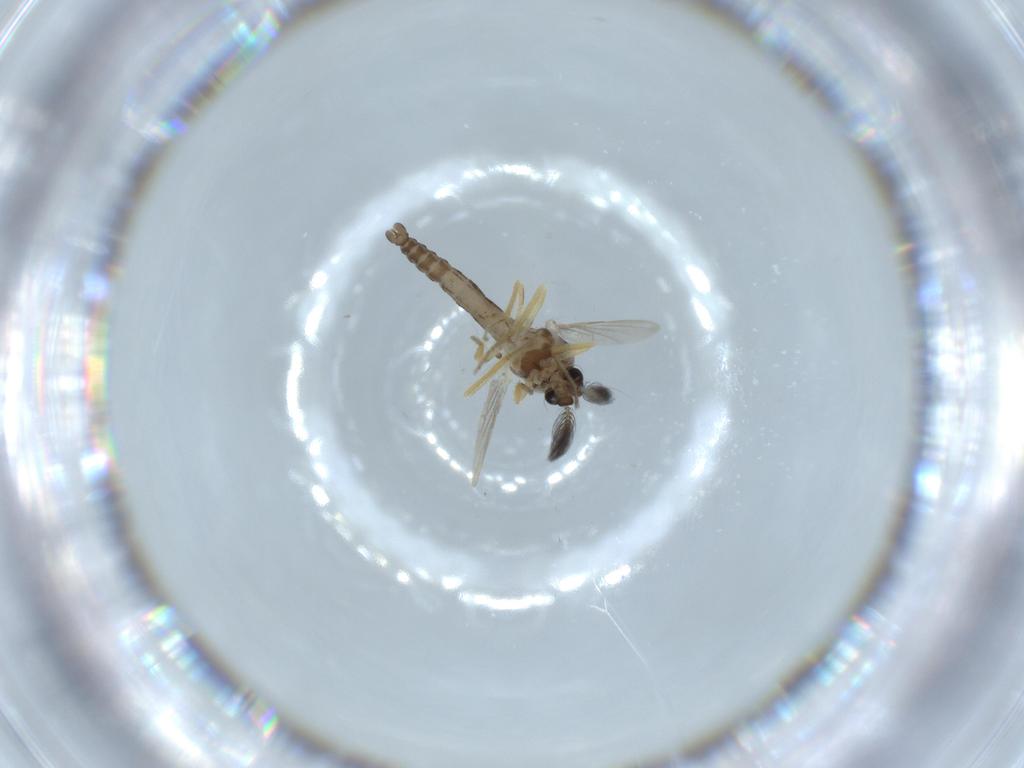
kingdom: Animalia
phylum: Arthropoda
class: Insecta
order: Diptera
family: Ceratopogonidae
